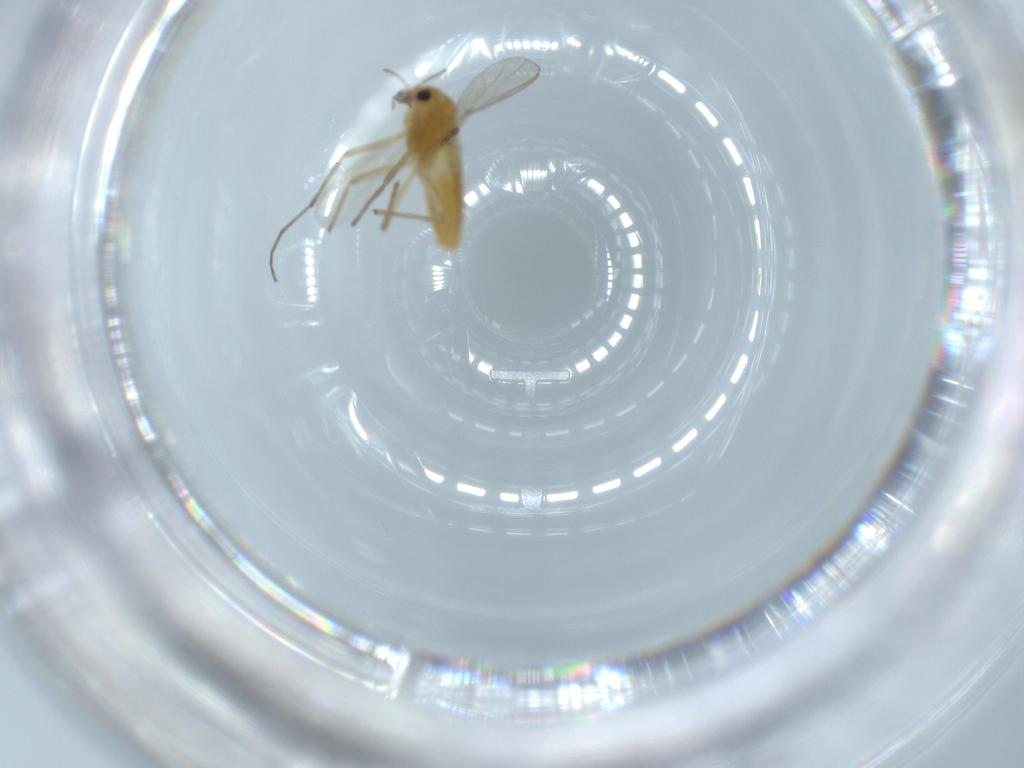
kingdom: Animalia
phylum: Arthropoda
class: Insecta
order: Diptera
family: Chironomidae
